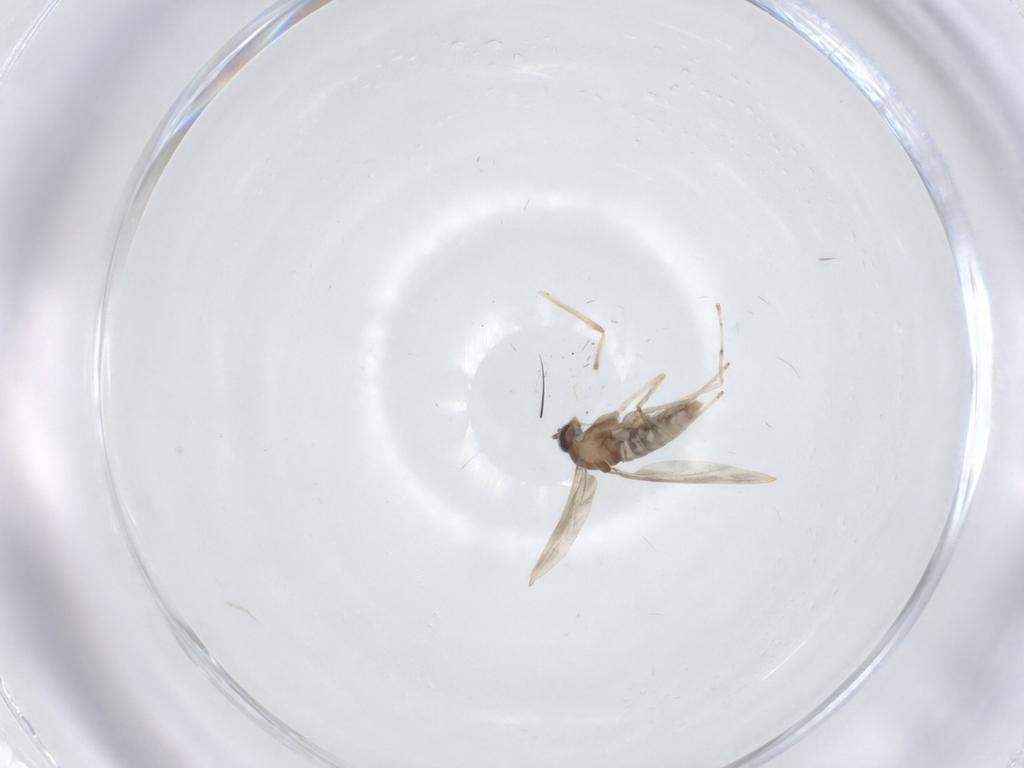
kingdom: Animalia
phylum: Arthropoda
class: Insecta
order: Diptera
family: Chironomidae
